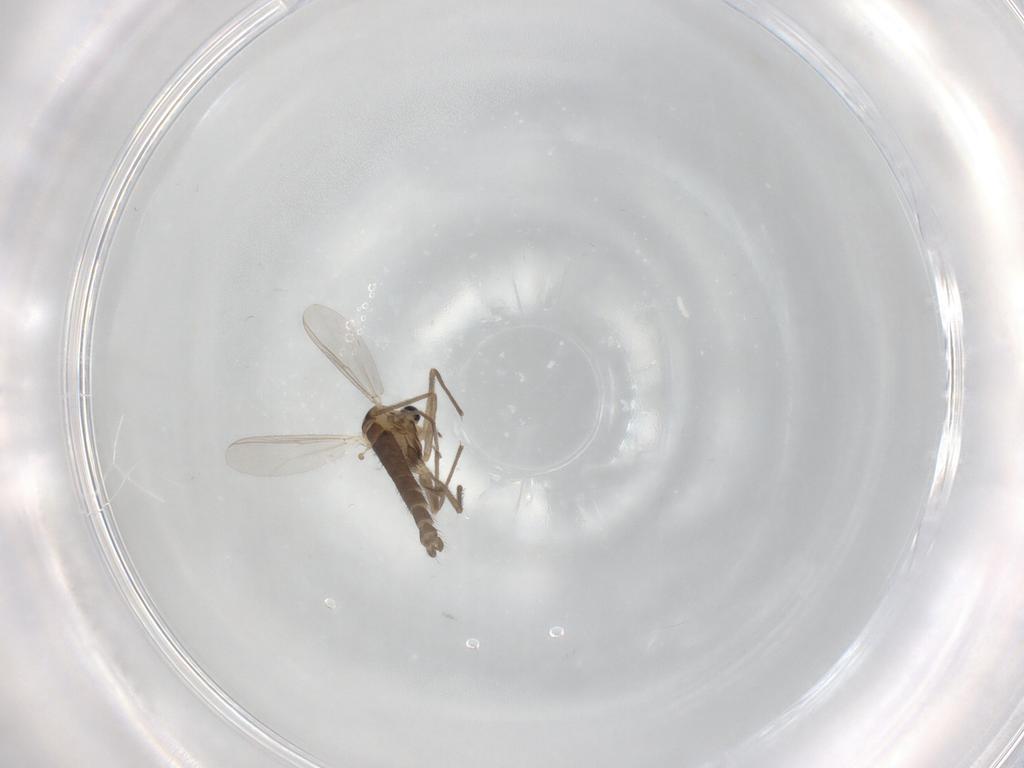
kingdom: Animalia
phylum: Arthropoda
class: Insecta
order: Diptera
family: Chironomidae
